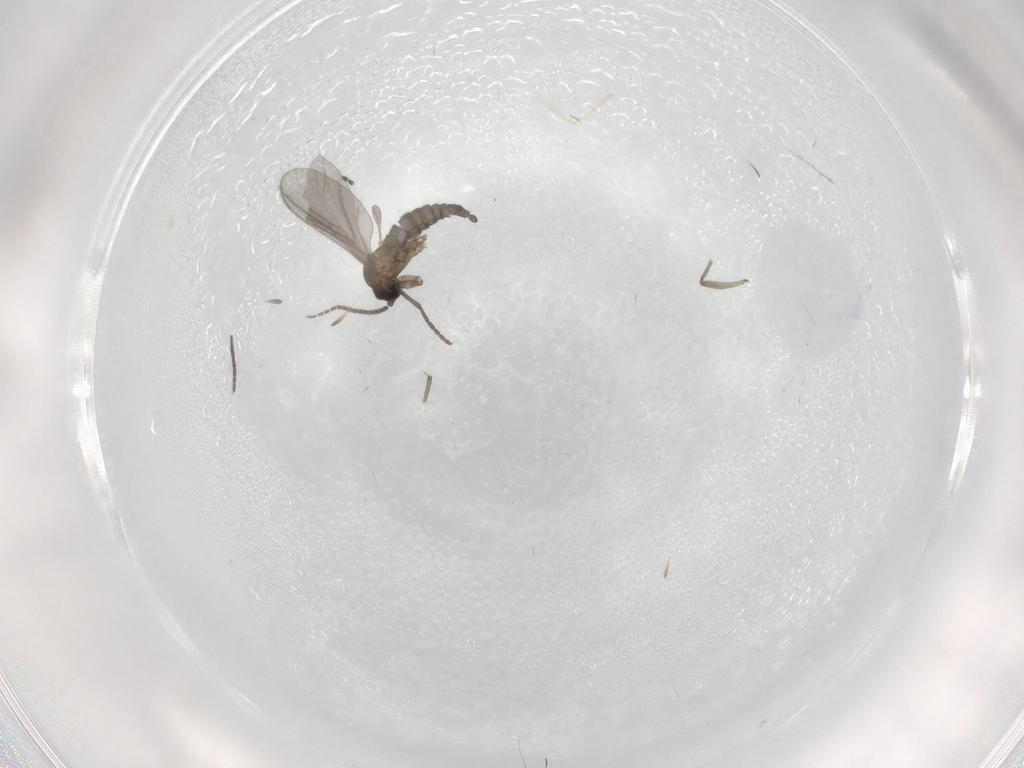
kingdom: Animalia
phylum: Arthropoda
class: Insecta
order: Diptera
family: Sciaridae
